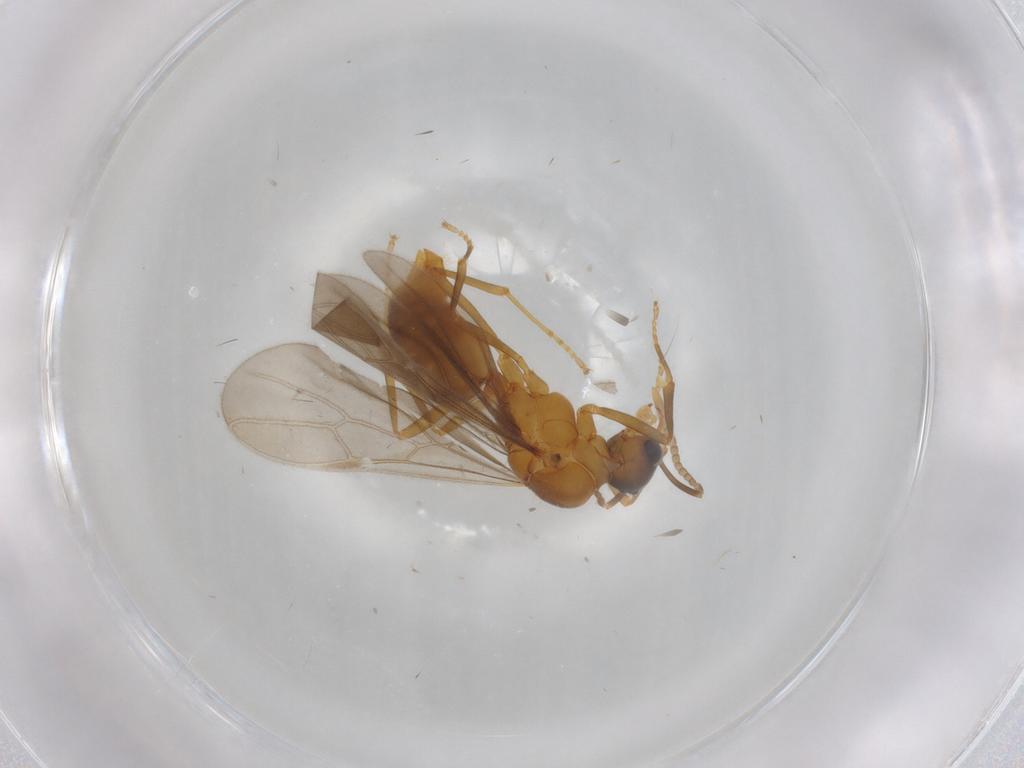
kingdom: Animalia
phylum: Arthropoda
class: Insecta
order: Hymenoptera
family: Formicidae
